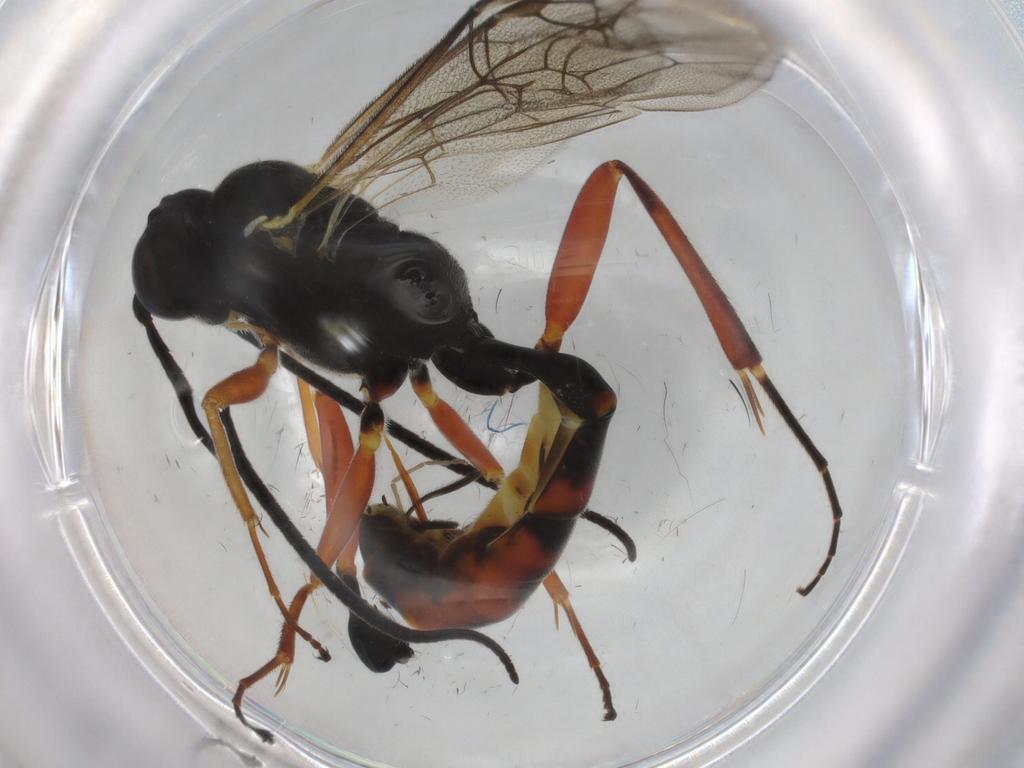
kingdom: Animalia
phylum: Arthropoda
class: Insecta
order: Hymenoptera
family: Ichneumonidae
